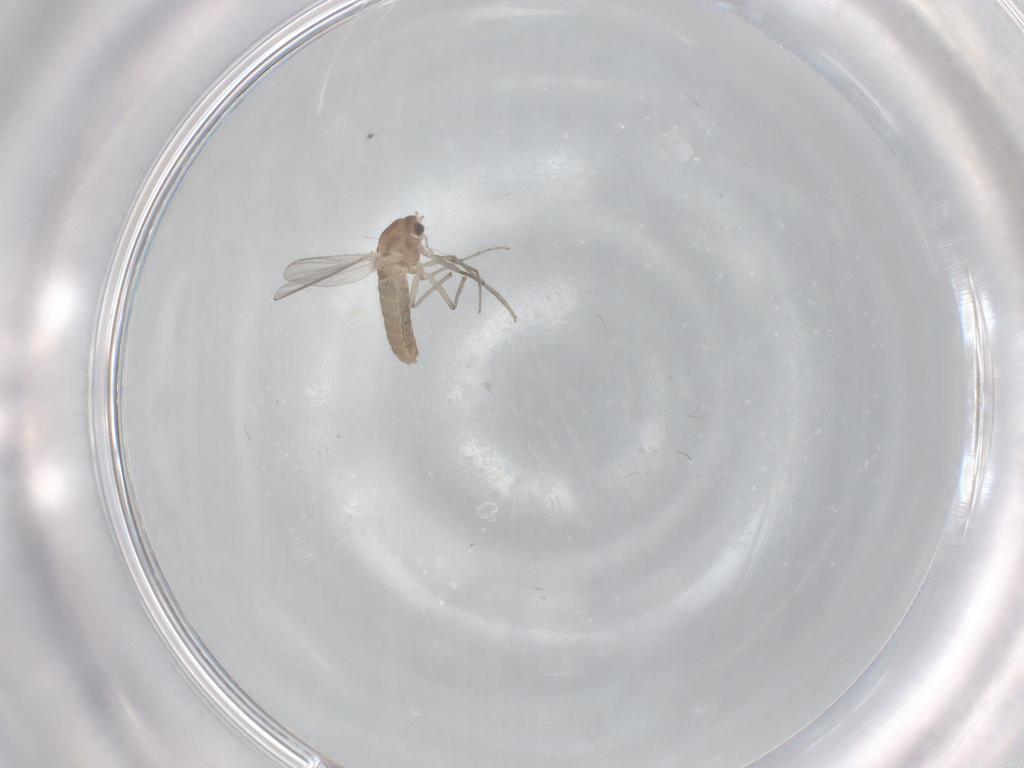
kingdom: Animalia
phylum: Arthropoda
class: Insecta
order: Diptera
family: Chironomidae
